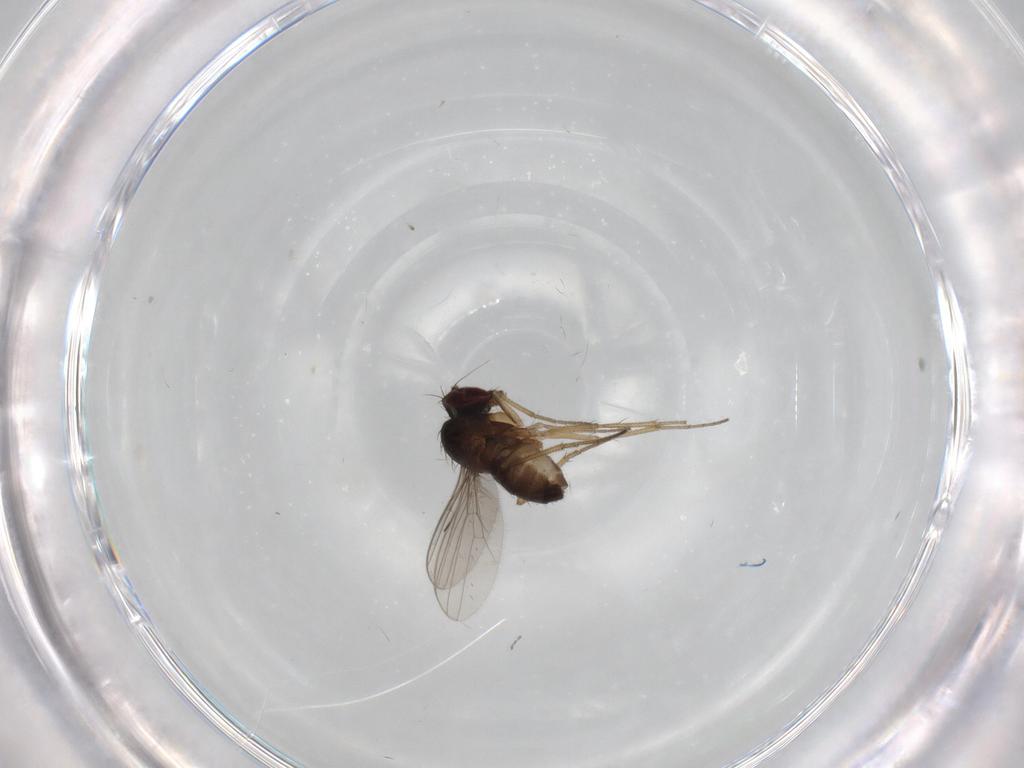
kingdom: Animalia
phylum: Arthropoda
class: Insecta
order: Diptera
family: Dolichopodidae
